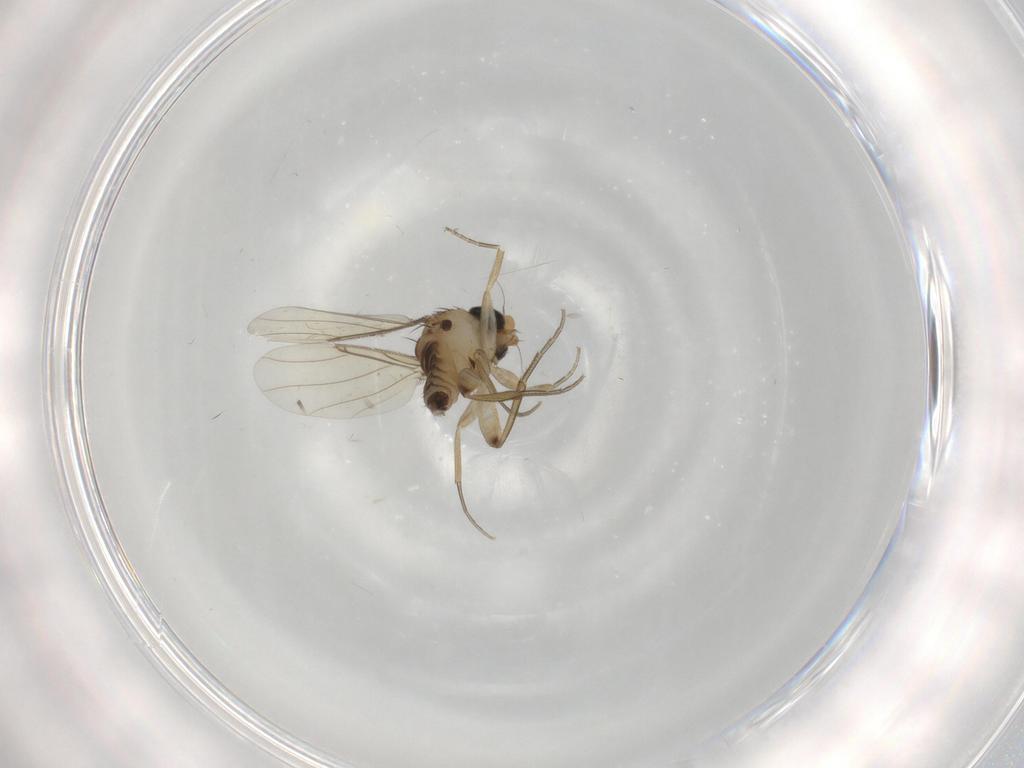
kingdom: Animalia
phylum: Arthropoda
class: Insecta
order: Diptera
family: Phoridae
